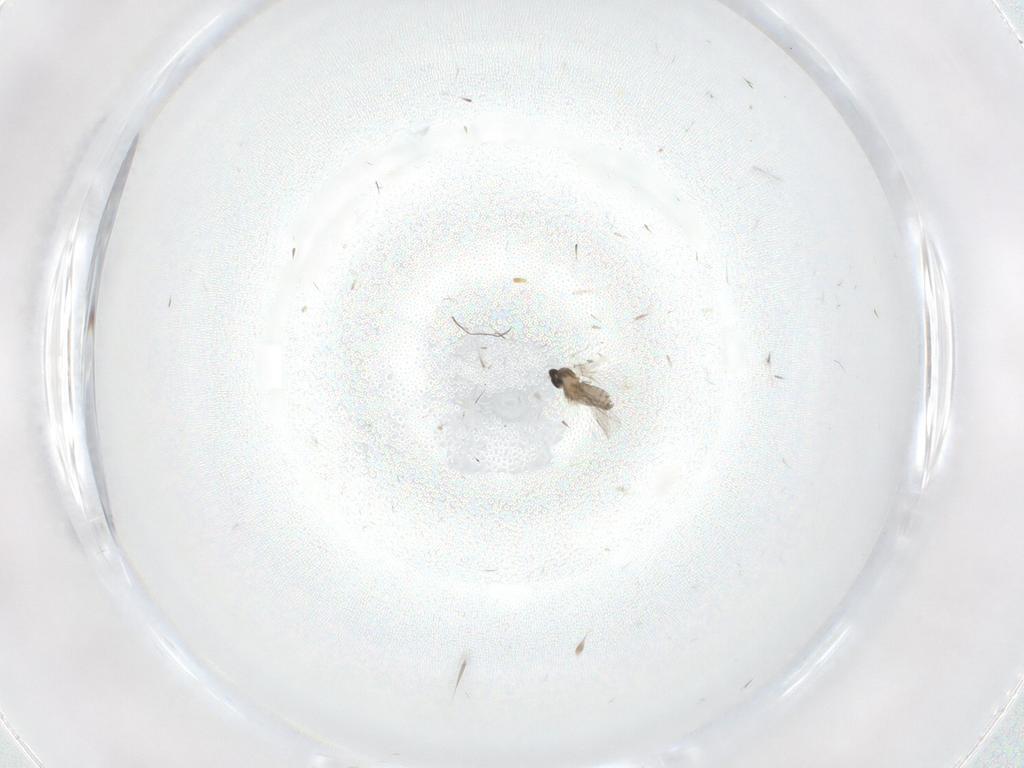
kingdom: Animalia
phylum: Arthropoda
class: Insecta
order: Diptera
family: Cecidomyiidae
